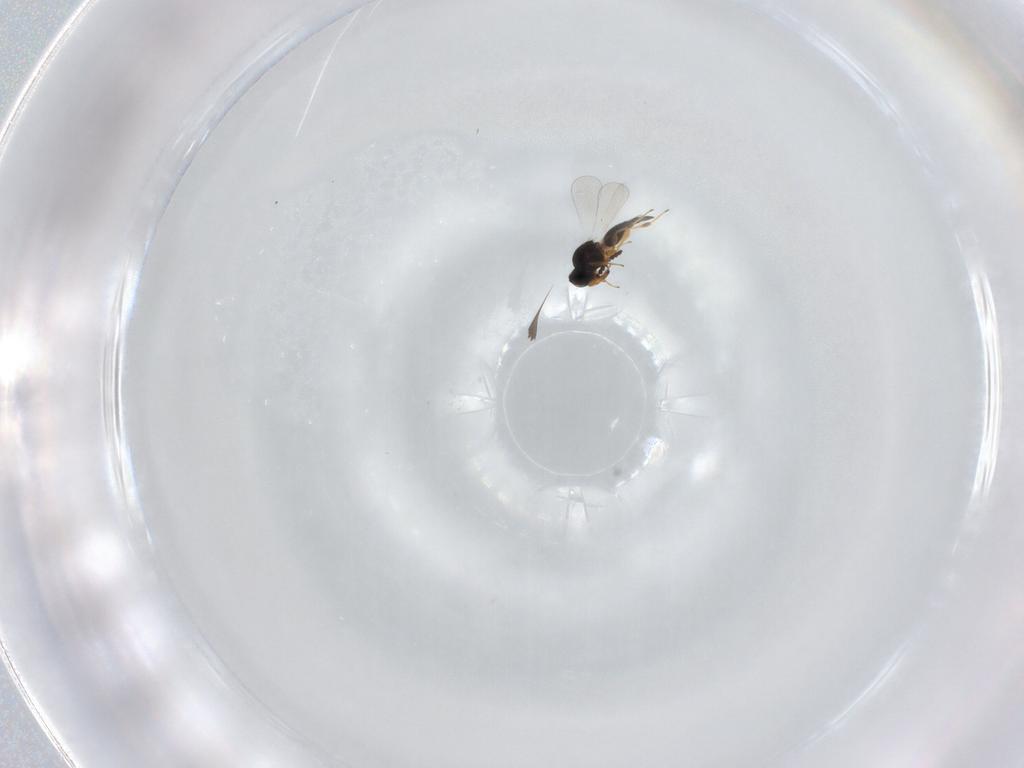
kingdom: Animalia
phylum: Arthropoda
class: Insecta
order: Hymenoptera
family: Platygastridae
